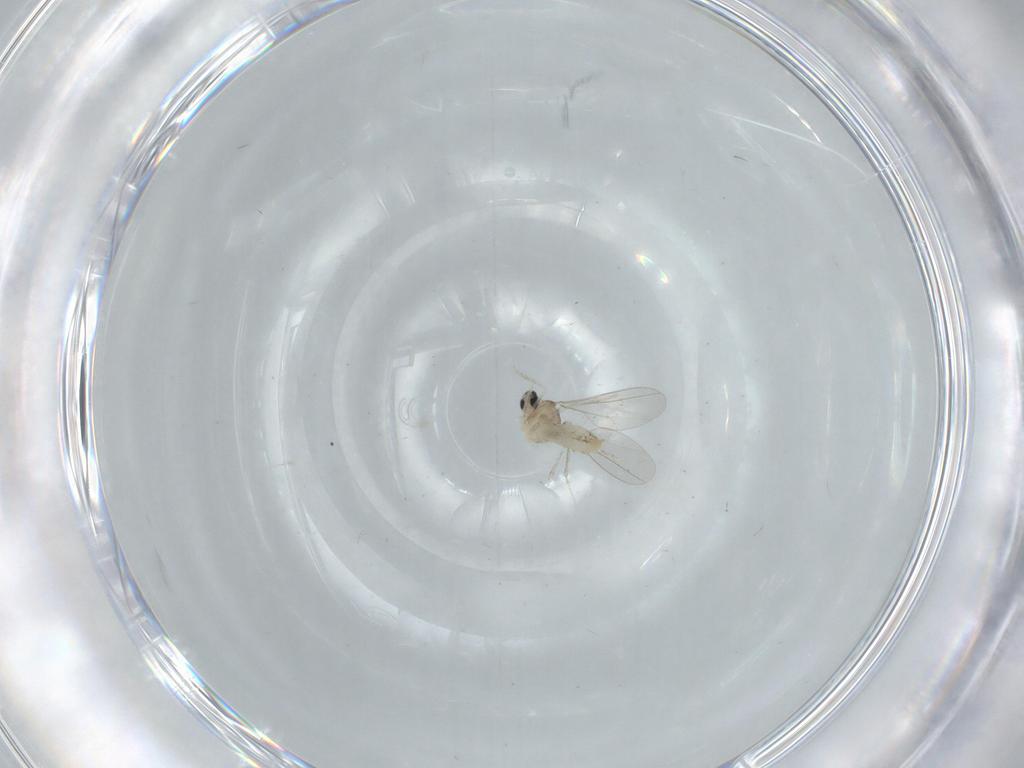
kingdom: Animalia
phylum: Arthropoda
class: Insecta
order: Diptera
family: Cecidomyiidae
